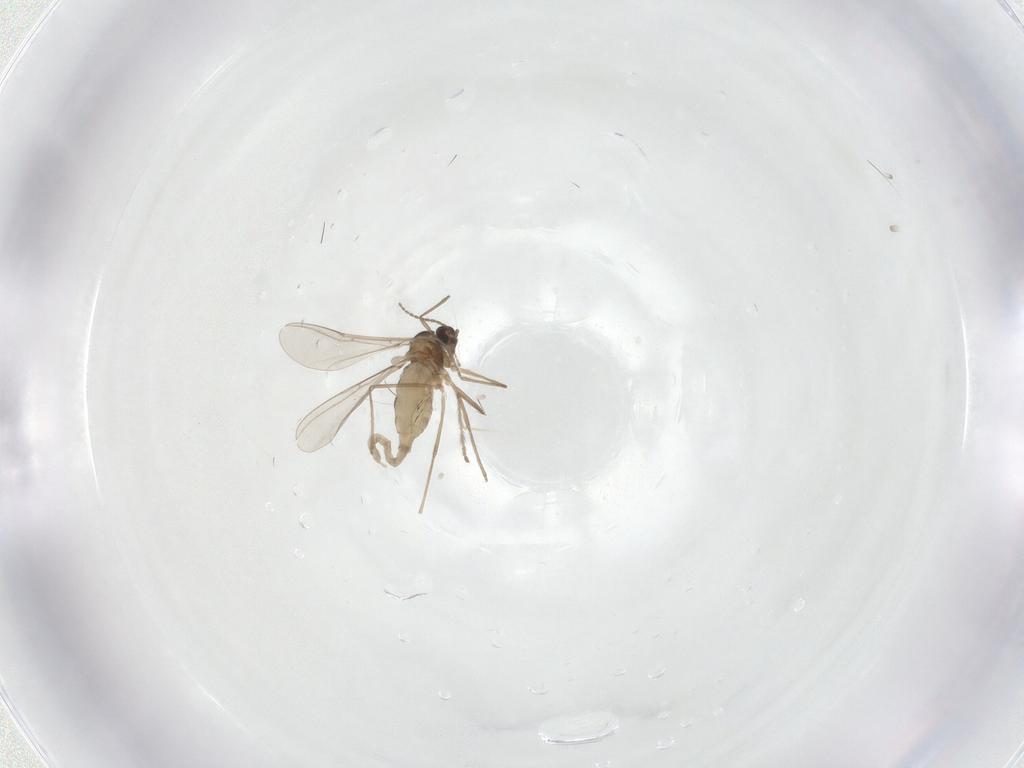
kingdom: Animalia
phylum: Arthropoda
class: Insecta
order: Diptera
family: Cecidomyiidae
